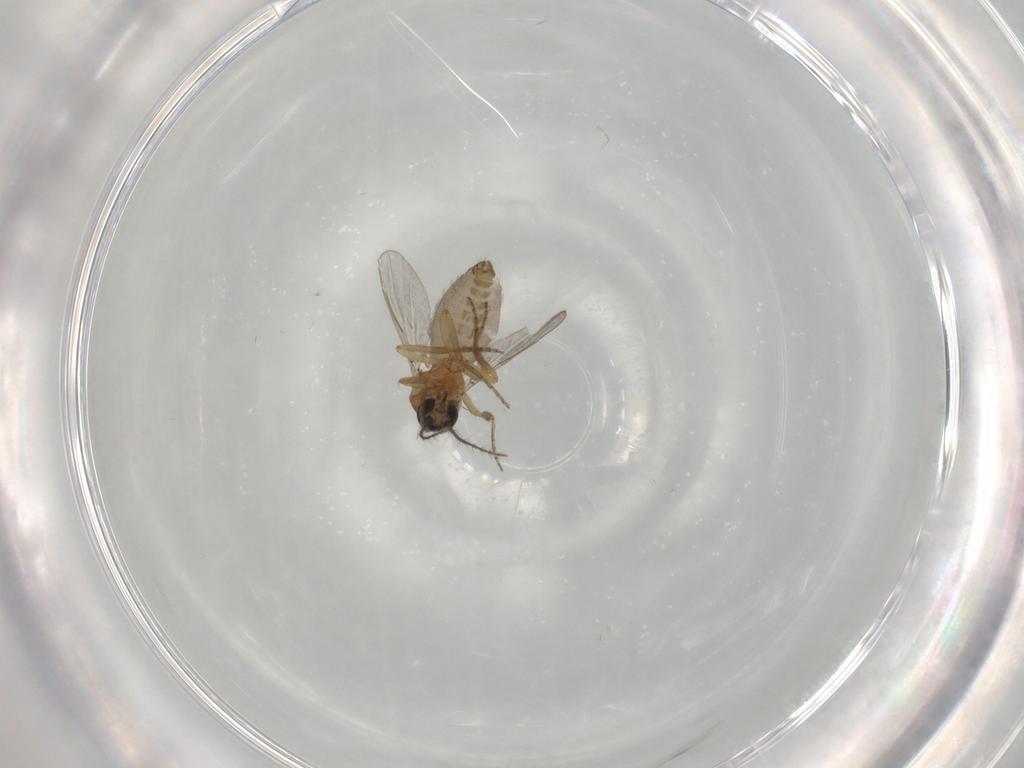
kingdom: Animalia
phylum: Arthropoda
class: Insecta
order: Diptera
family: Ceratopogonidae
